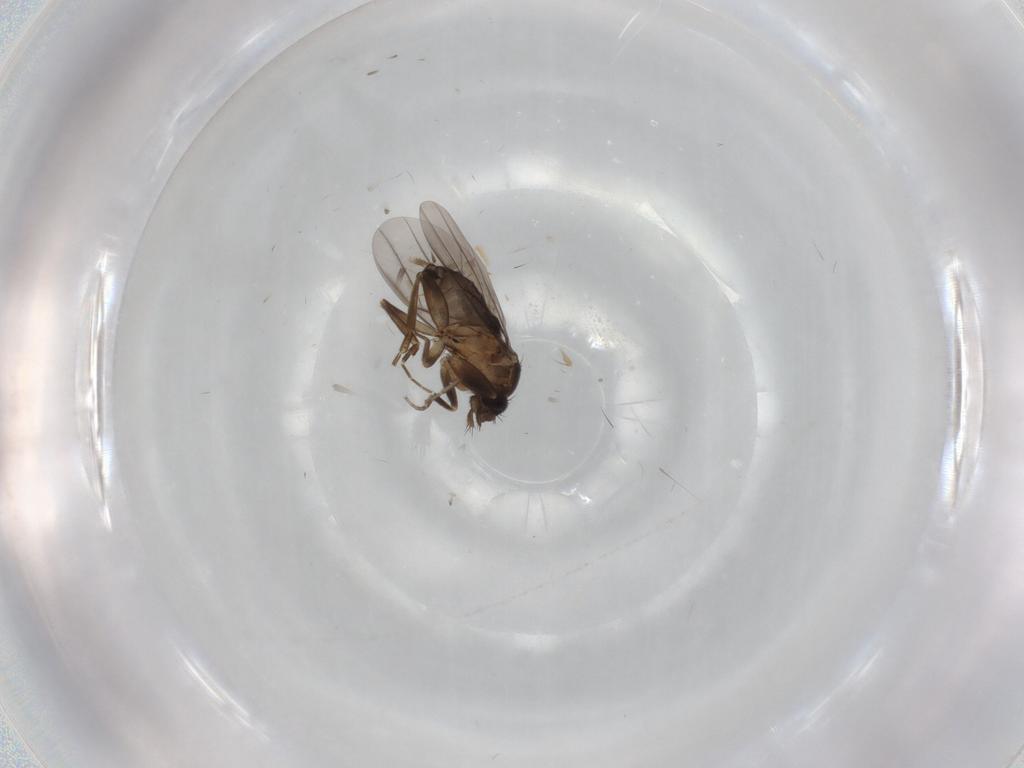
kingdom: Animalia
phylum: Arthropoda
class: Insecta
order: Diptera
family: Phoridae
